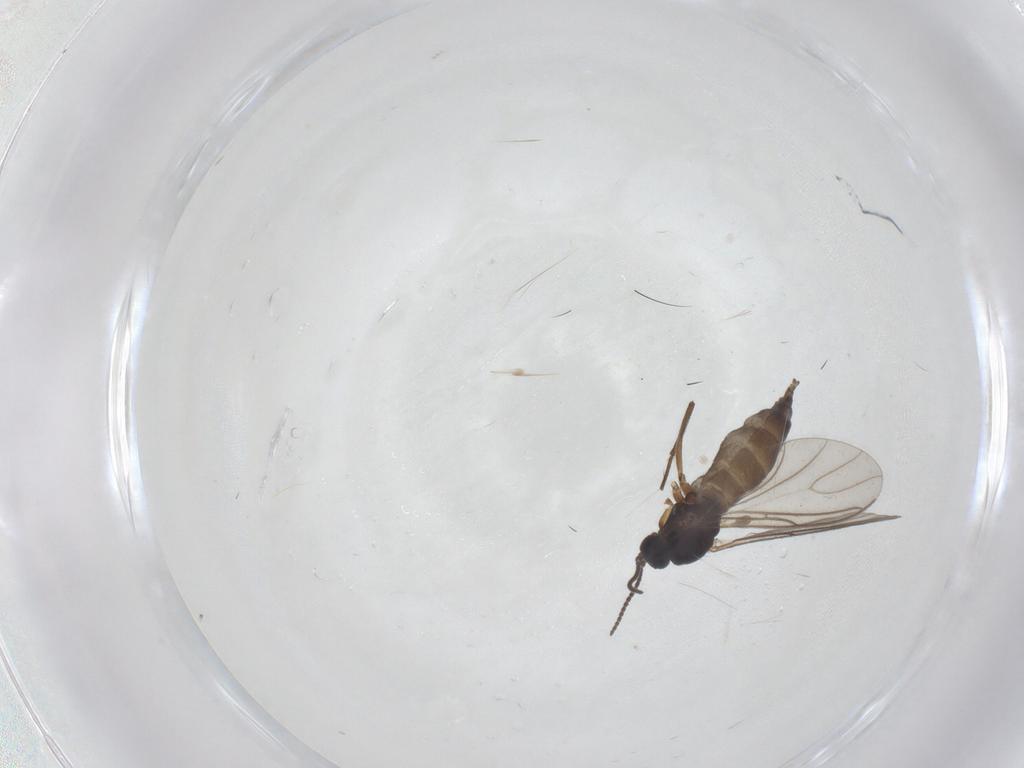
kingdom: Animalia
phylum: Arthropoda
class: Insecta
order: Diptera
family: Sciaridae
